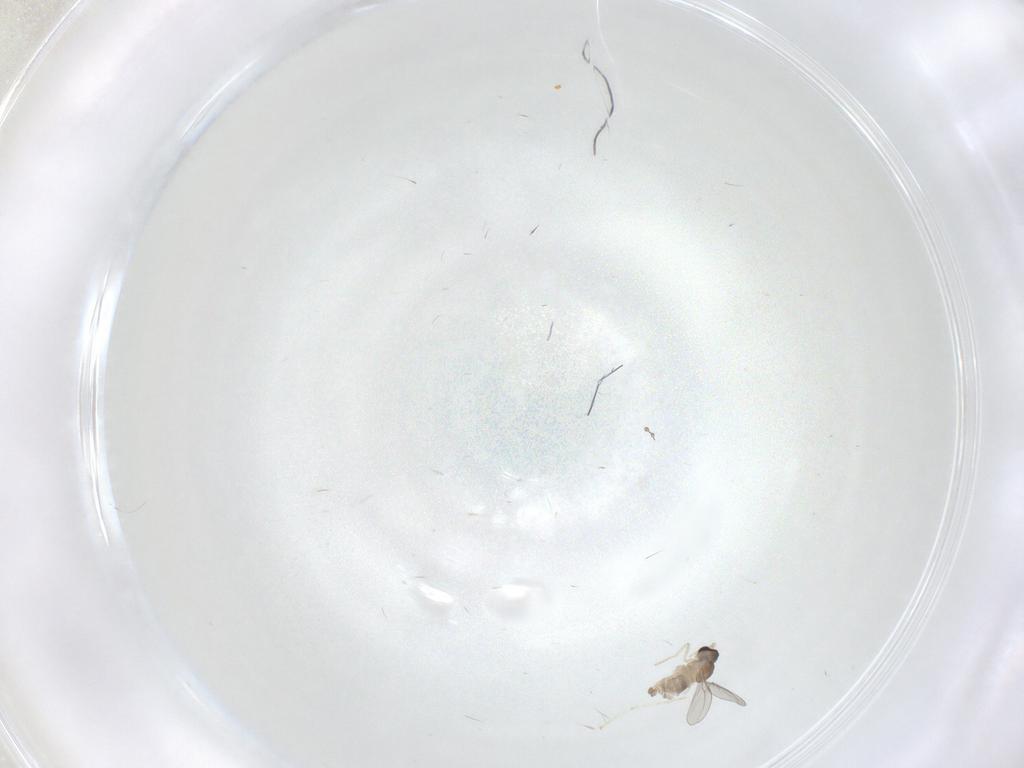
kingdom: Animalia
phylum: Arthropoda
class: Insecta
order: Diptera
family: Cecidomyiidae
